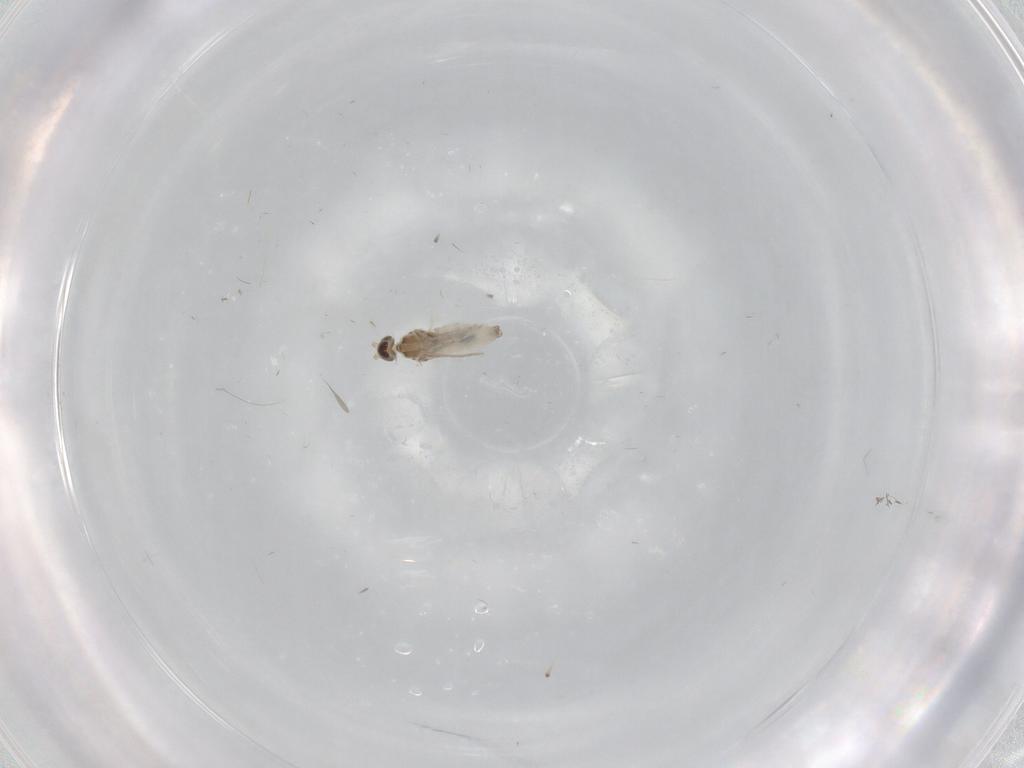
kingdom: Animalia
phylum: Arthropoda
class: Insecta
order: Diptera
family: Cecidomyiidae
